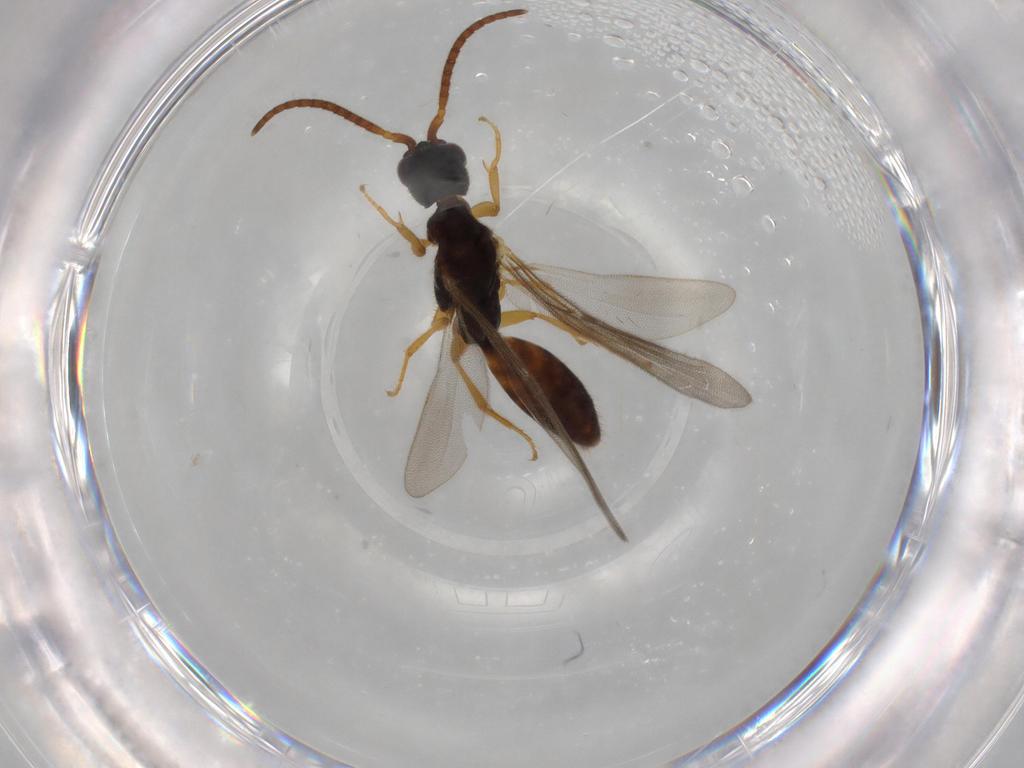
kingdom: Animalia
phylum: Arthropoda
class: Insecta
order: Hymenoptera
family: Bethylidae
